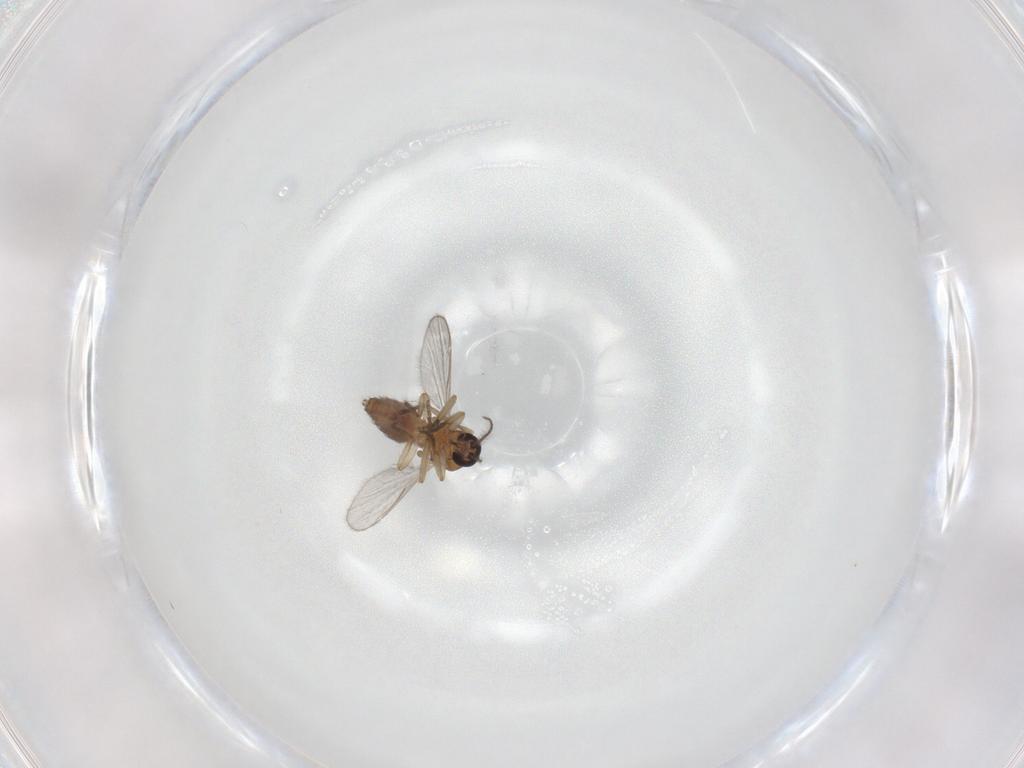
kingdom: Animalia
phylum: Arthropoda
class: Insecta
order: Diptera
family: Chironomidae
